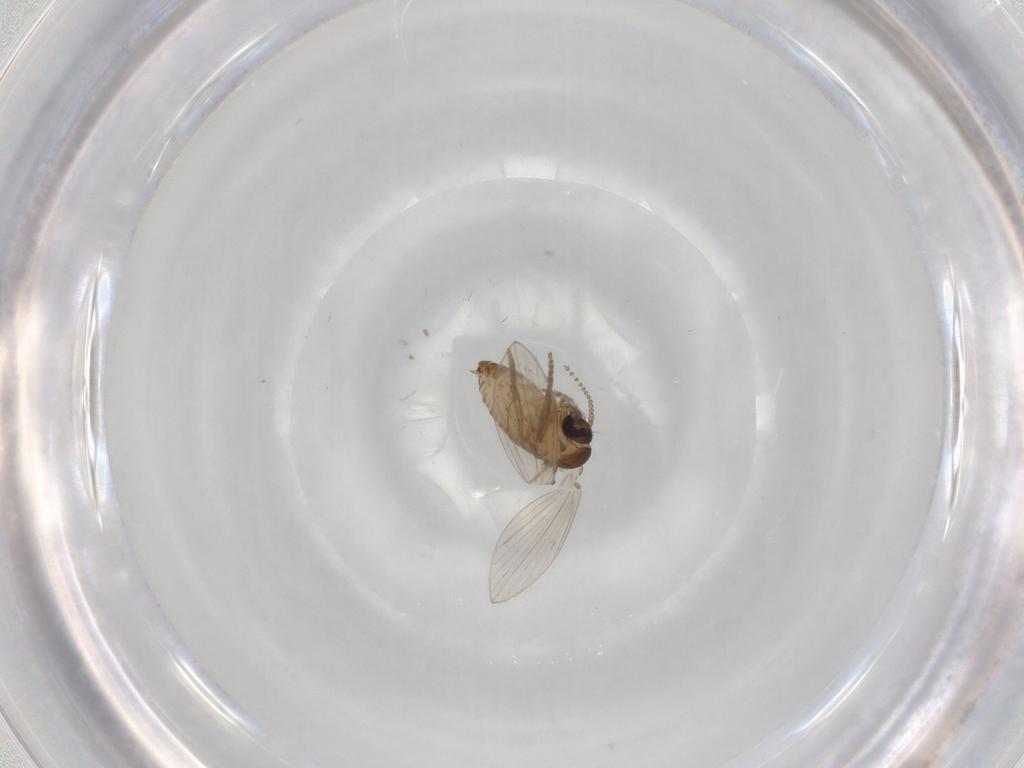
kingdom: Animalia
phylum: Arthropoda
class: Insecta
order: Diptera
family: Psychodidae
